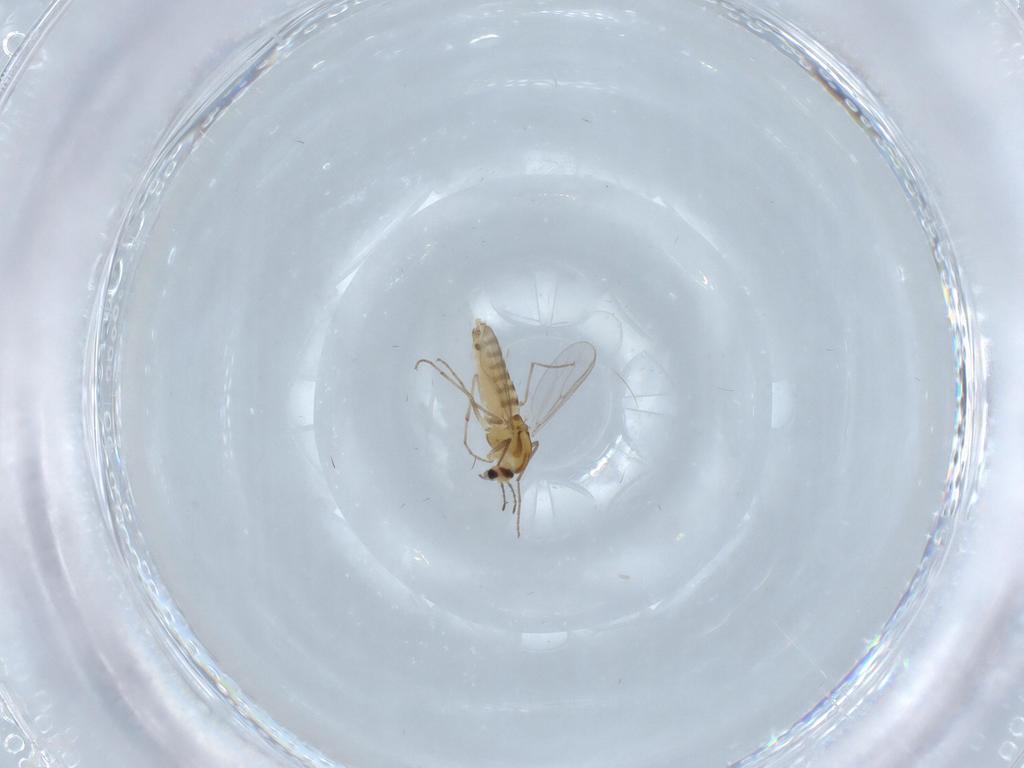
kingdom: Animalia
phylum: Arthropoda
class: Insecta
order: Diptera
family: Chironomidae
